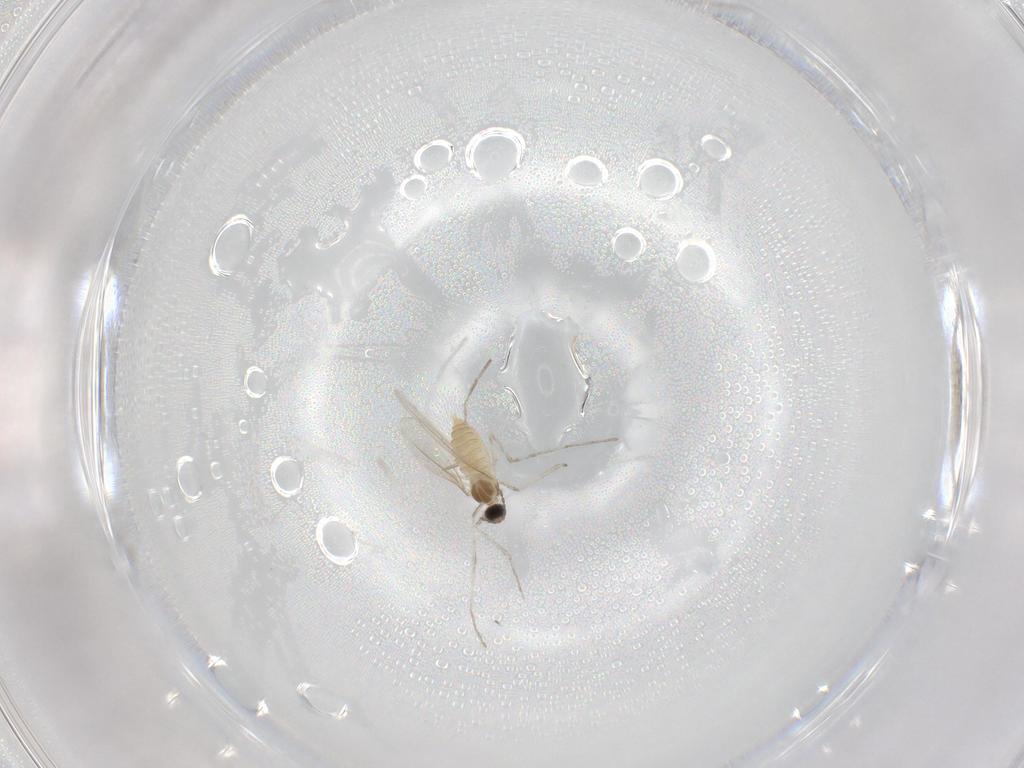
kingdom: Animalia
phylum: Arthropoda
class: Insecta
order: Diptera
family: Cecidomyiidae
